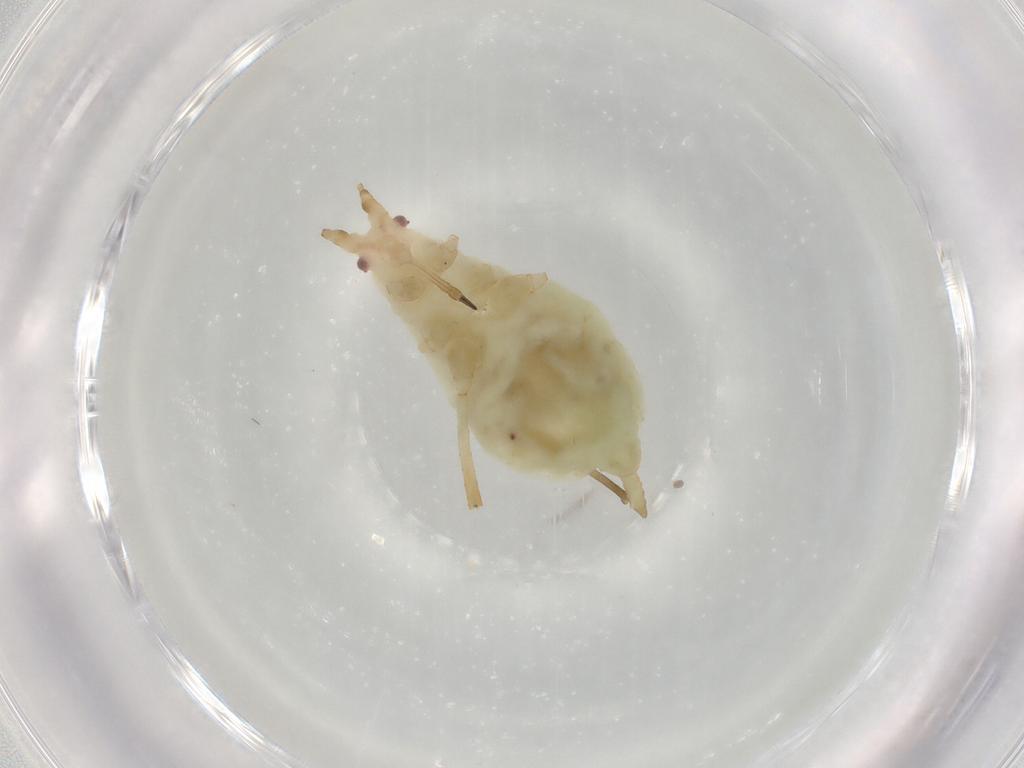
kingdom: Animalia
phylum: Arthropoda
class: Insecta
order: Hemiptera
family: Aphididae
